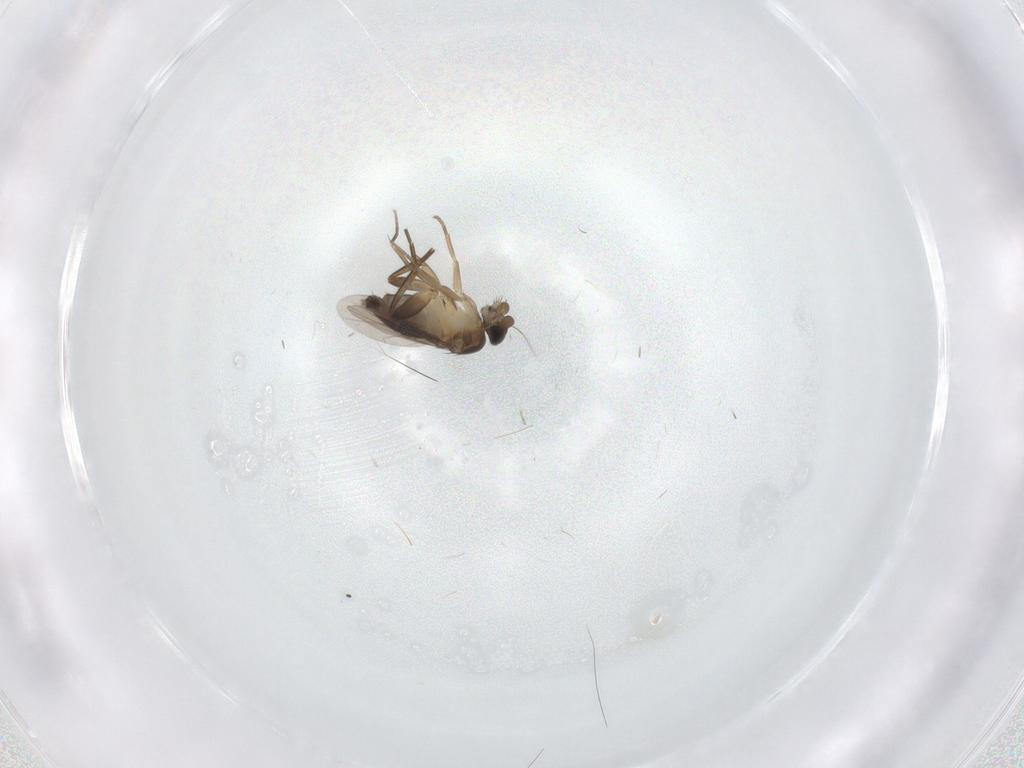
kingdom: Animalia
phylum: Arthropoda
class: Insecta
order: Diptera
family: Phoridae
